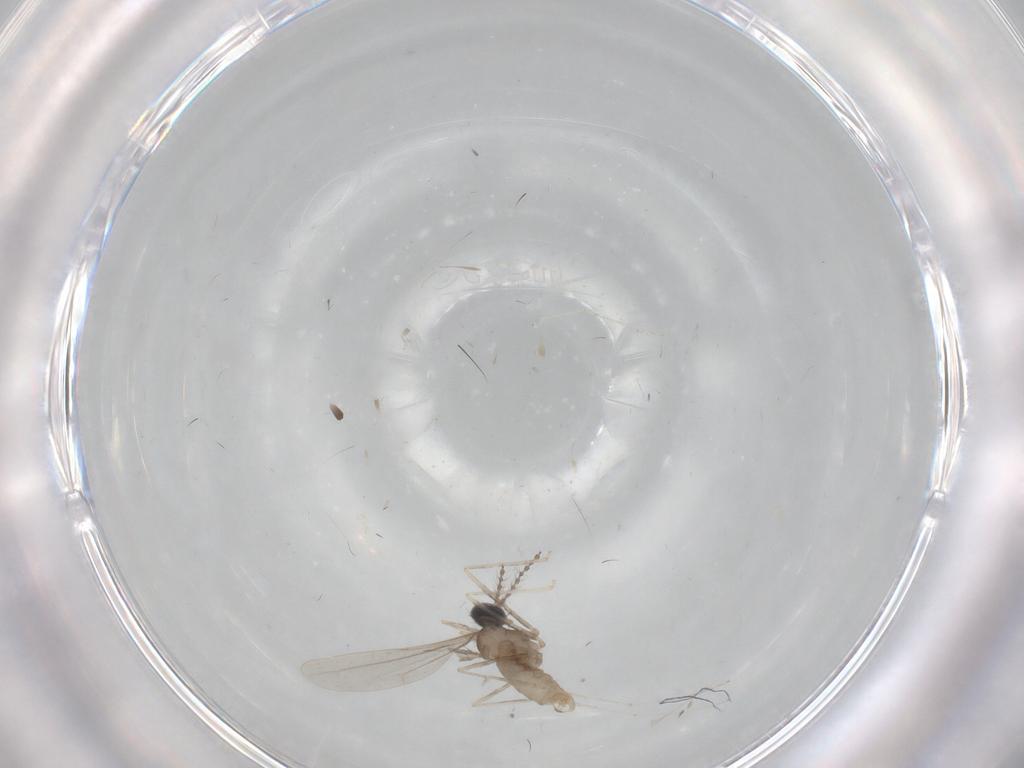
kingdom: Animalia
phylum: Arthropoda
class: Insecta
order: Diptera
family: Cecidomyiidae
